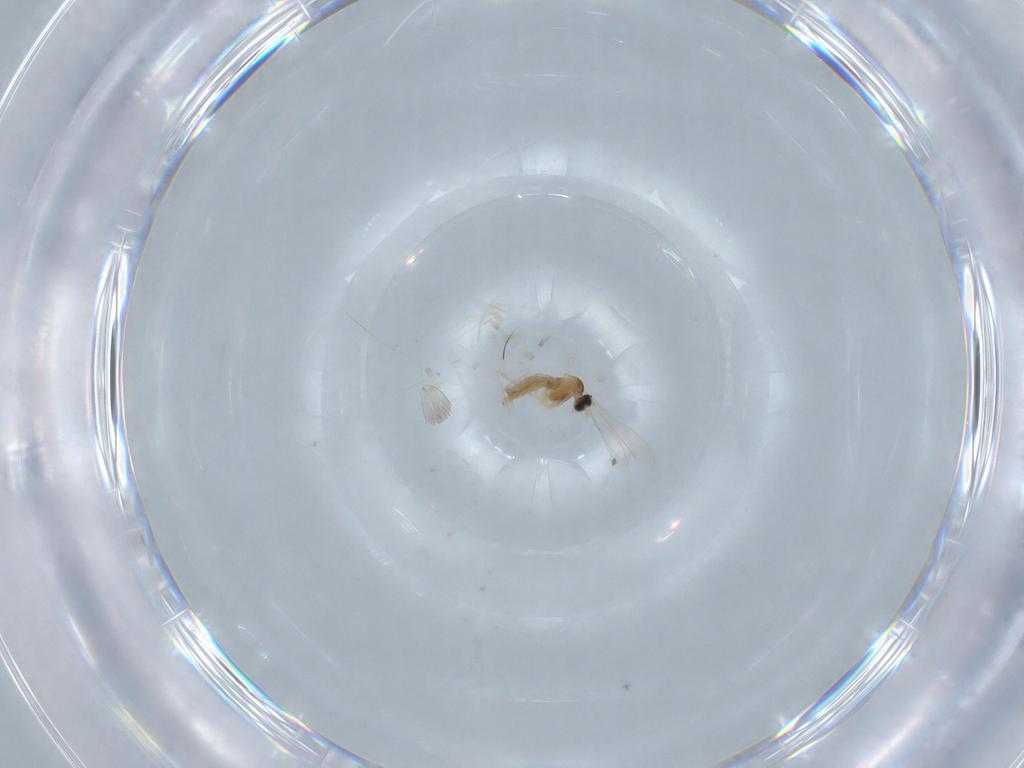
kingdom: Animalia
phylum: Arthropoda
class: Insecta
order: Diptera
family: Cecidomyiidae
